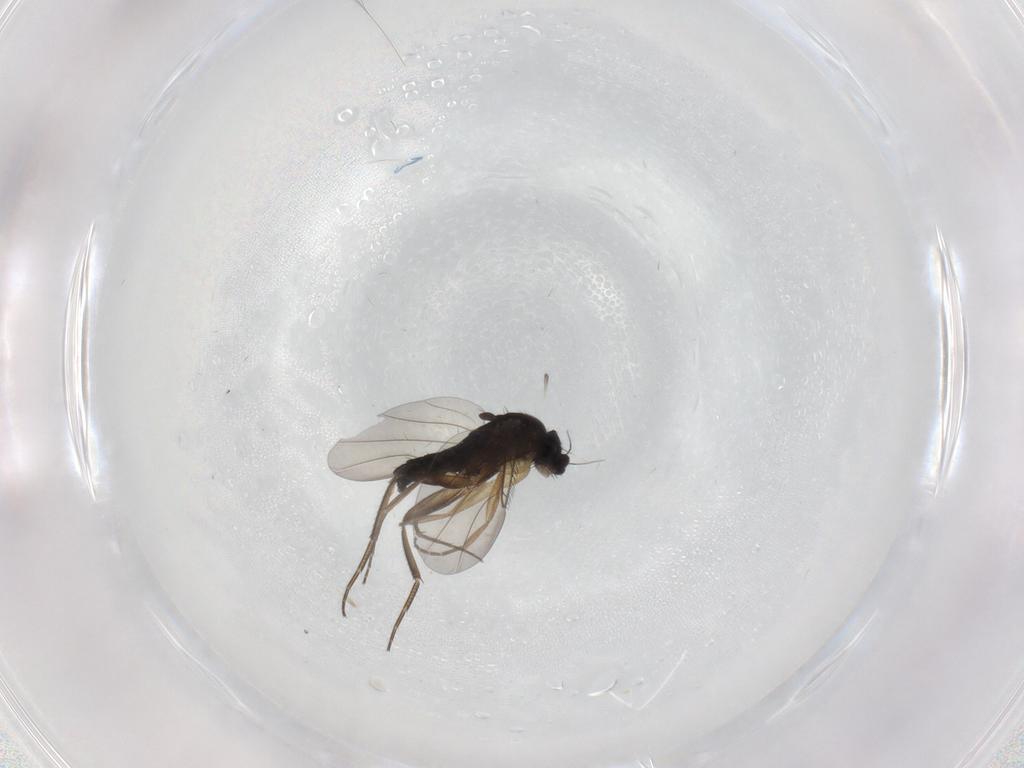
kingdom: Animalia
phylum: Arthropoda
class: Insecta
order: Diptera
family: Phoridae
